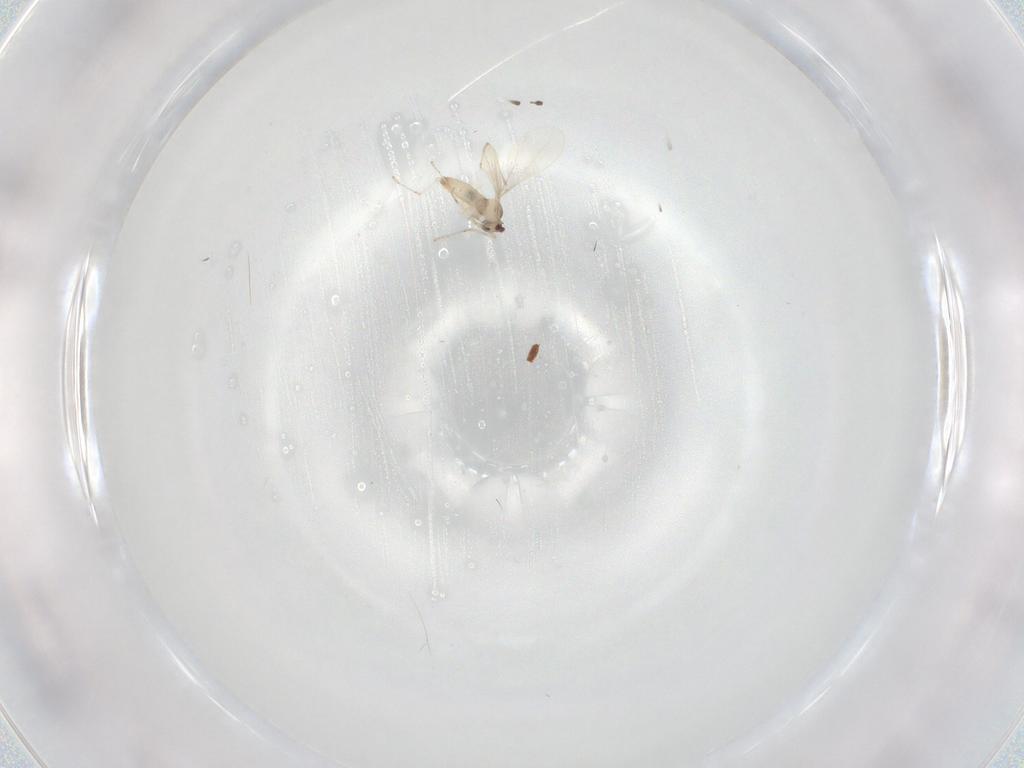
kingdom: Animalia
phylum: Arthropoda
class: Insecta
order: Diptera
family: Cecidomyiidae
